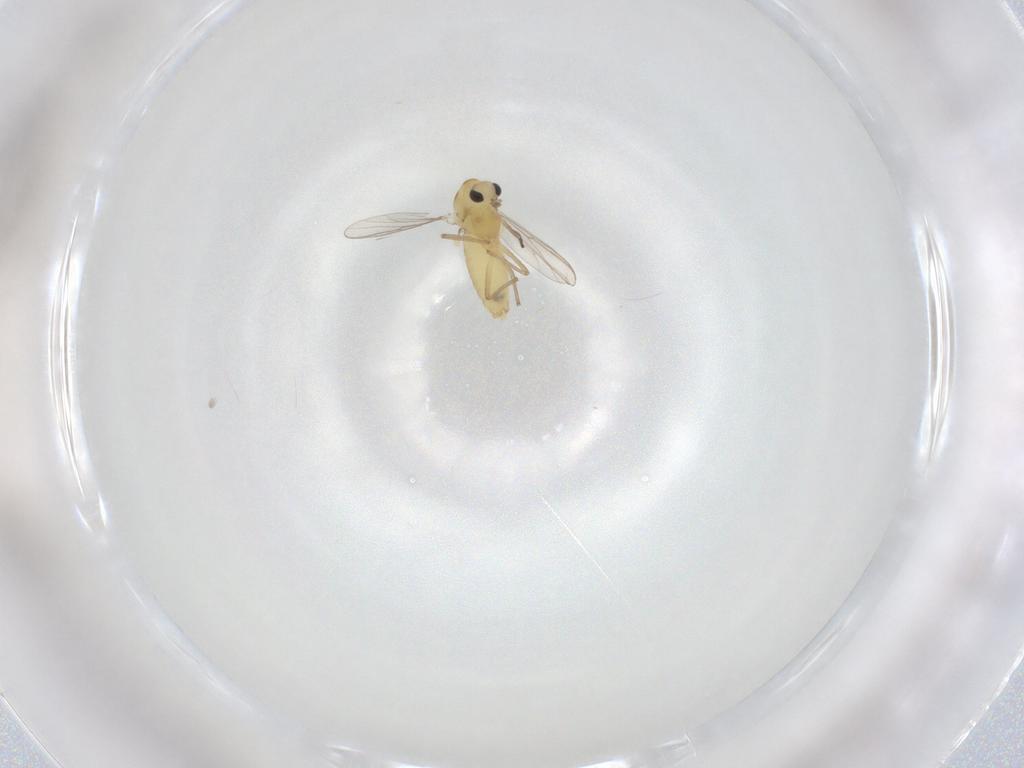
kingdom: Animalia
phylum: Arthropoda
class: Insecta
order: Diptera
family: Chironomidae
